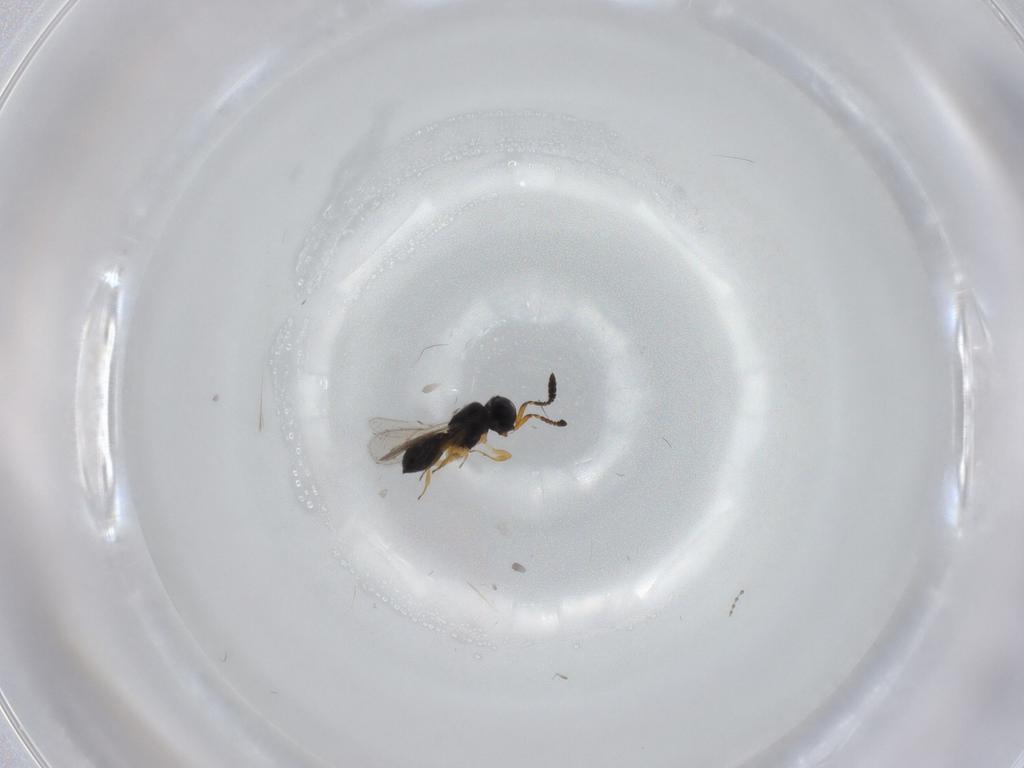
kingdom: Animalia
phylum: Arthropoda
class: Insecta
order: Hymenoptera
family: Scelionidae
